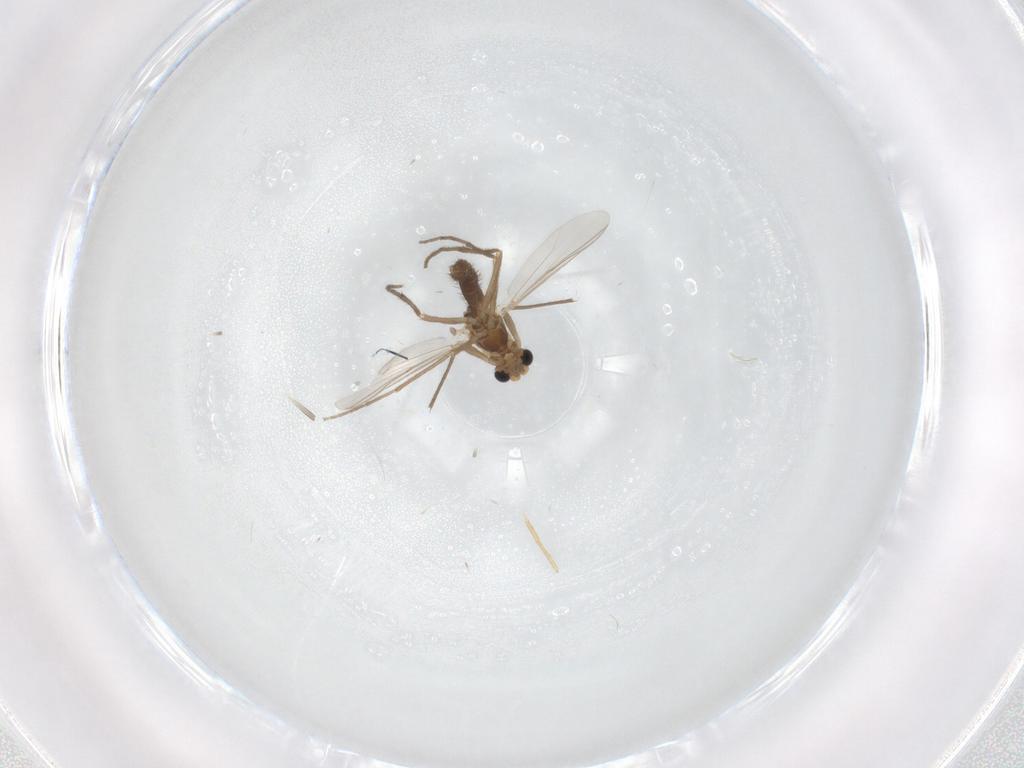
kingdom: Animalia
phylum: Arthropoda
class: Insecta
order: Diptera
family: Chironomidae
